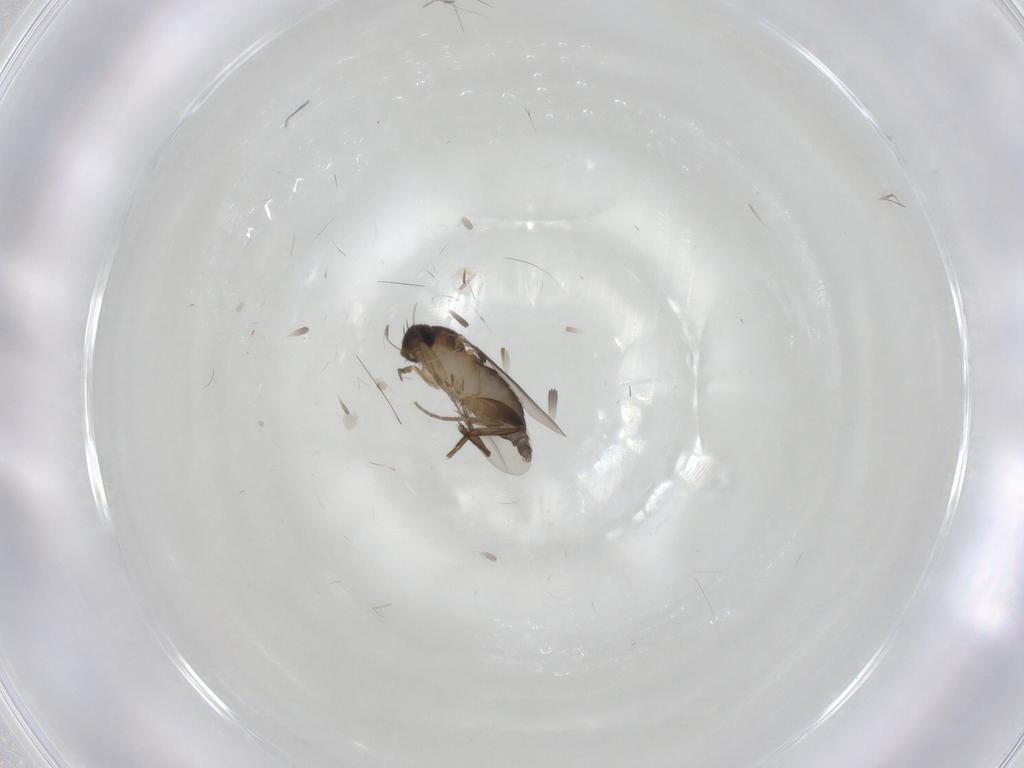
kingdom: Animalia
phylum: Arthropoda
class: Insecta
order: Diptera
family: Phoridae
